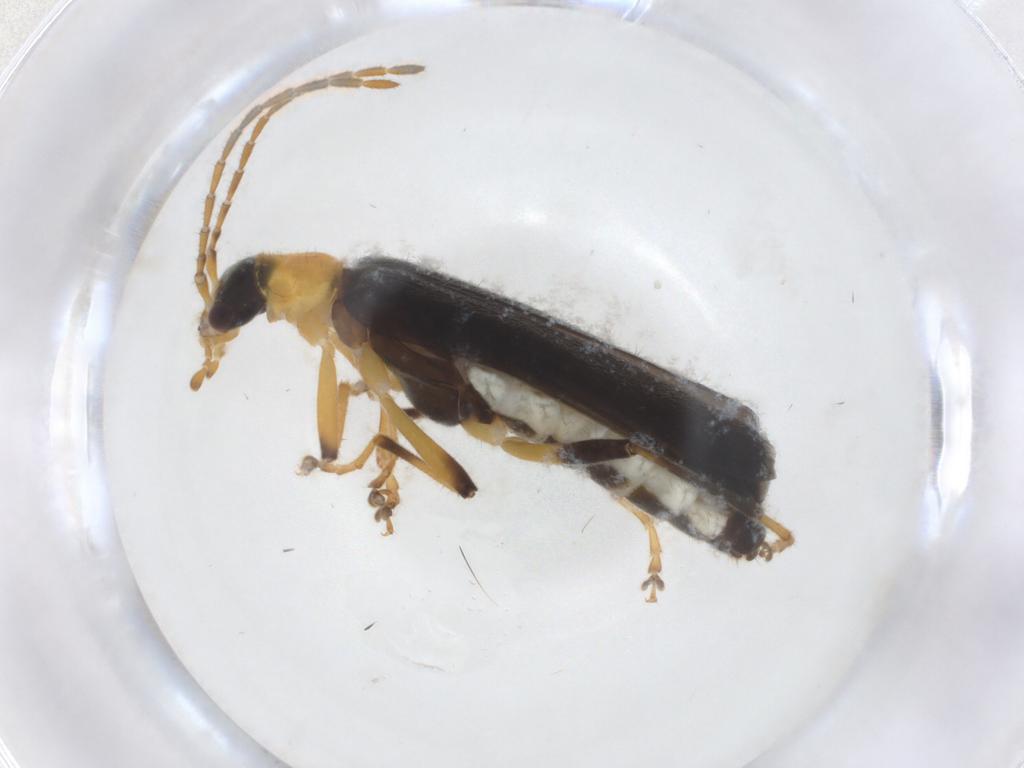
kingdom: Animalia
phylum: Arthropoda
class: Insecta
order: Coleoptera
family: Cantharidae
